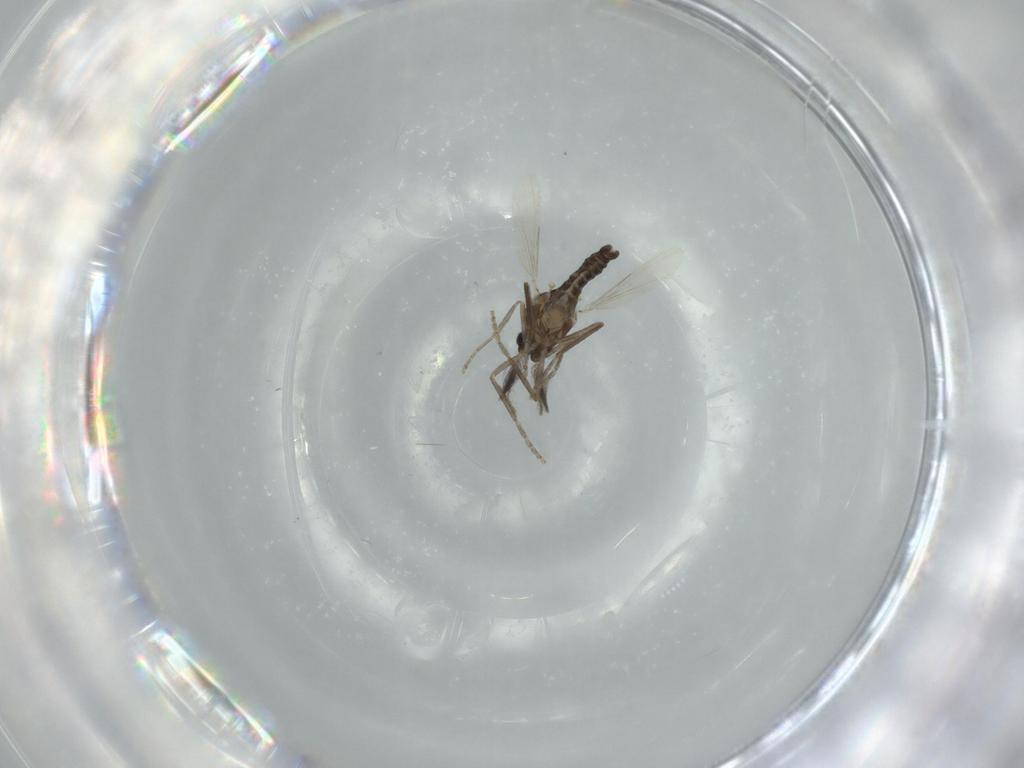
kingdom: Animalia
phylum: Arthropoda
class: Insecta
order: Diptera
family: Ceratopogonidae
